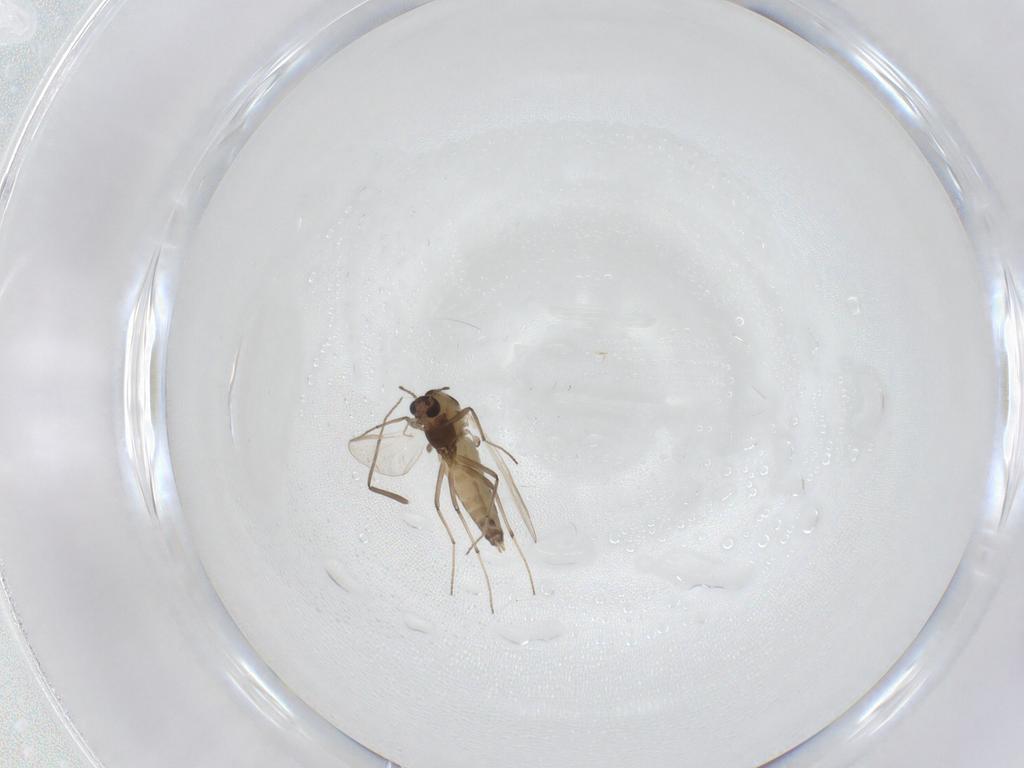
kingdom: Animalia
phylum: Arthropoda
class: Insecta
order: Diptera
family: Chironomidae
